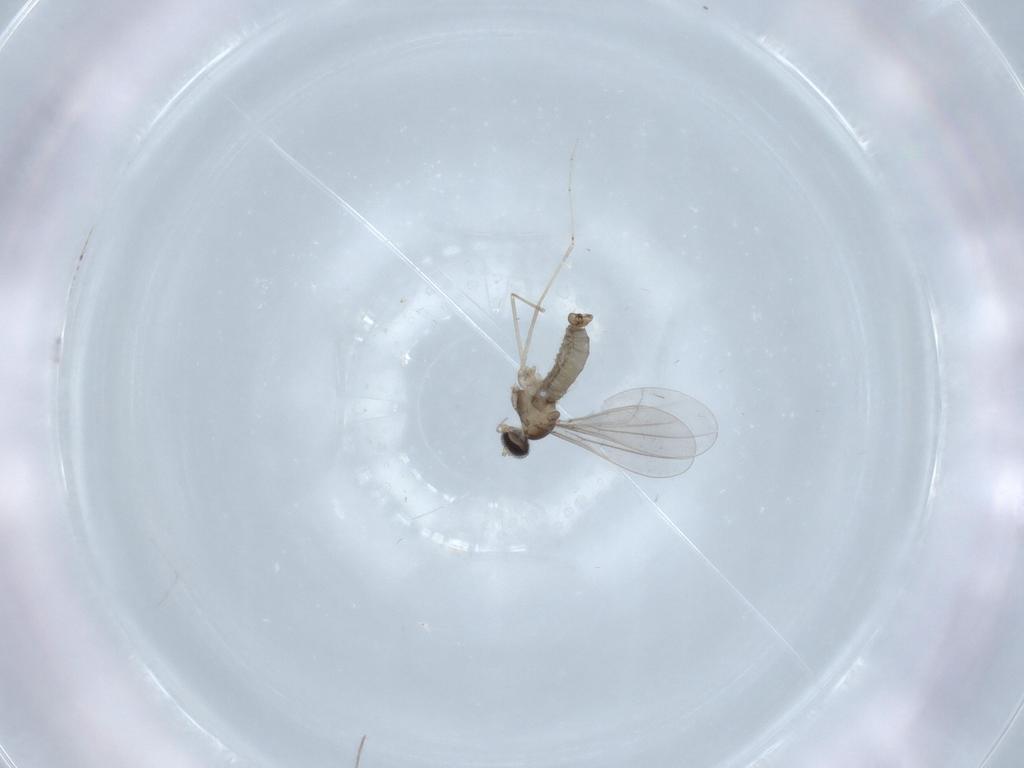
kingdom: Animalia
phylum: Arthropoda
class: Insecta
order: Diptera
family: Cecidomyiidae
